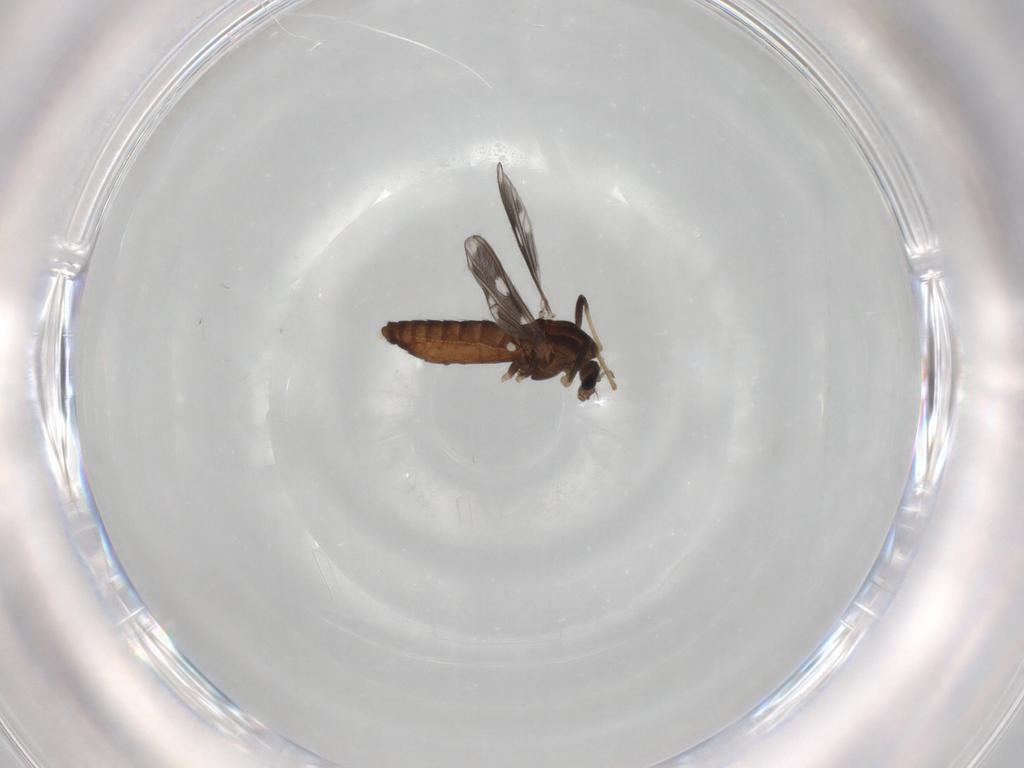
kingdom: Animalia
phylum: Arthropoda
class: Insecta
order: Diptera
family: Chironomidae
